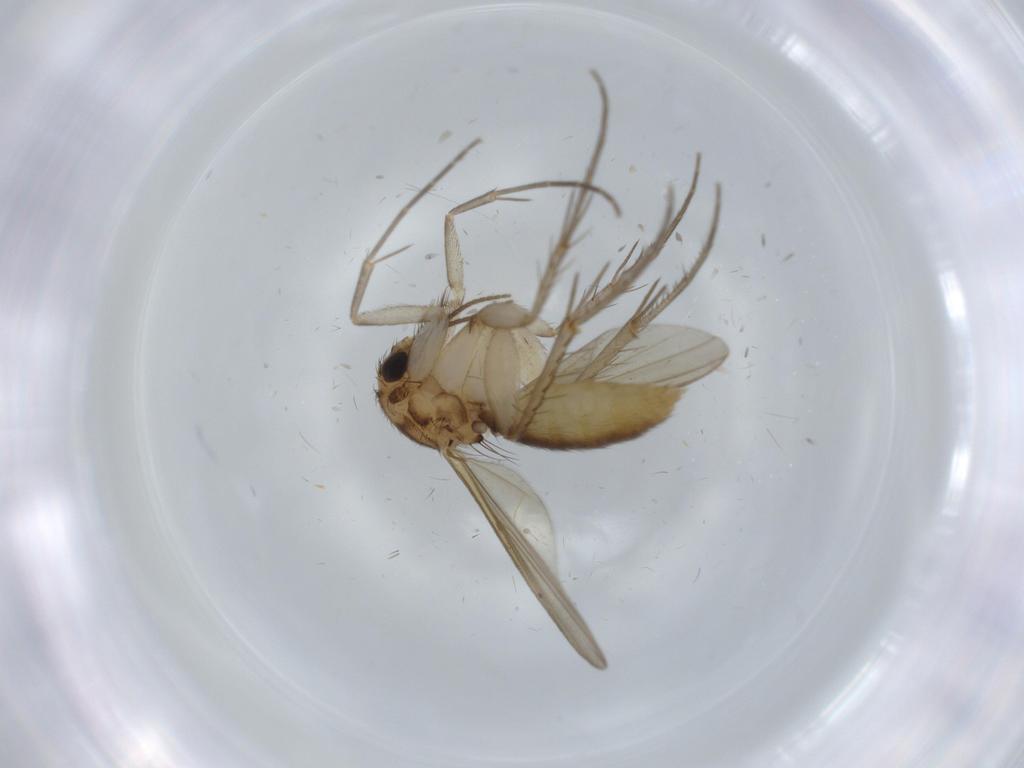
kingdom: Animalia
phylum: Arthropoda
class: Insecta
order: Diptera
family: Mycetophilidae
